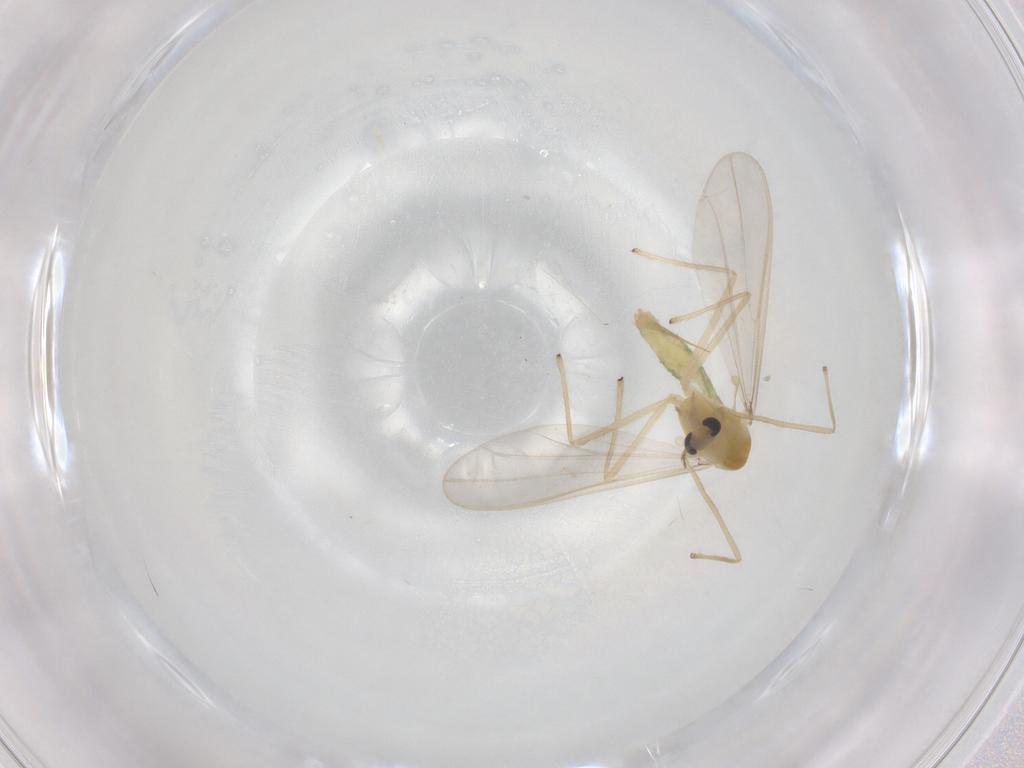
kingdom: Animalia
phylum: Arthropoda
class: Insecta
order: Diptera
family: Chironomidae
